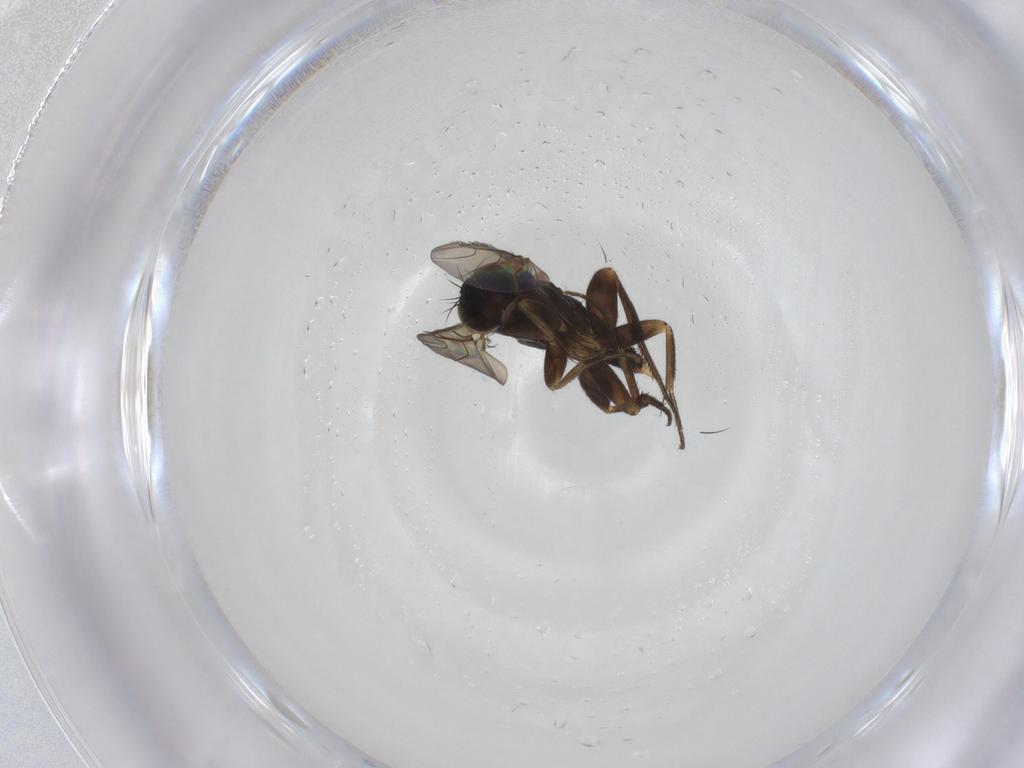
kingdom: Animalia
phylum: Arthropoda
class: Insecta
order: Diptera
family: Phoridae
